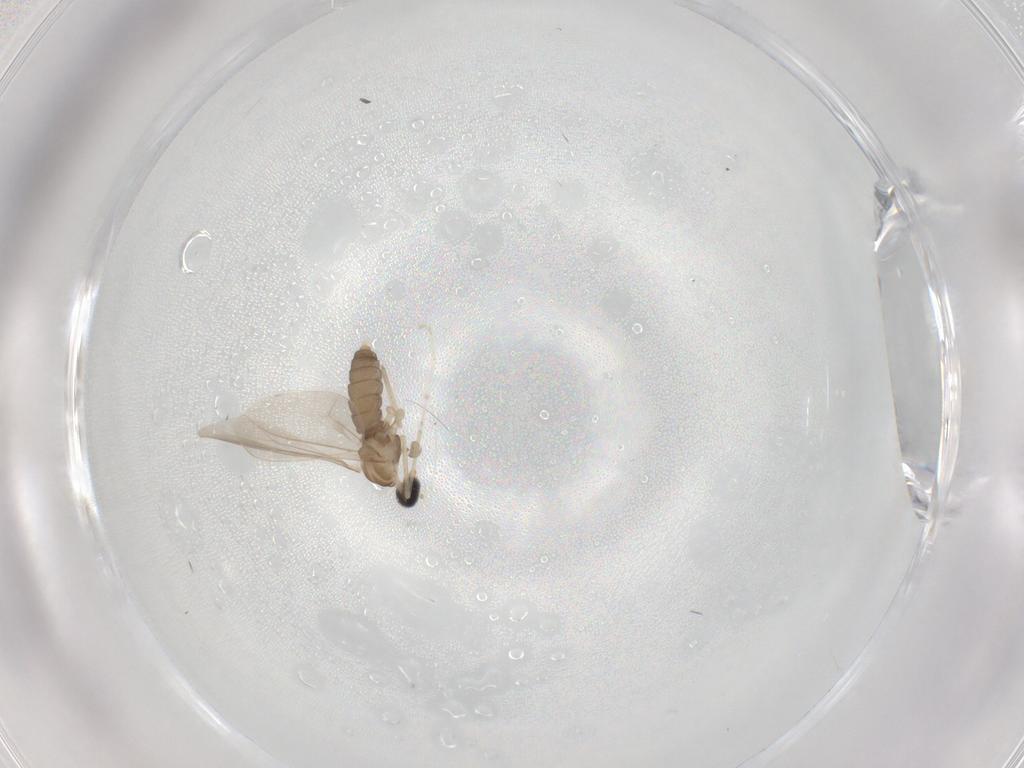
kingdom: Animalia
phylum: Arthropoda
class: Insecta
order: Diptera
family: Cecidomyiidae
